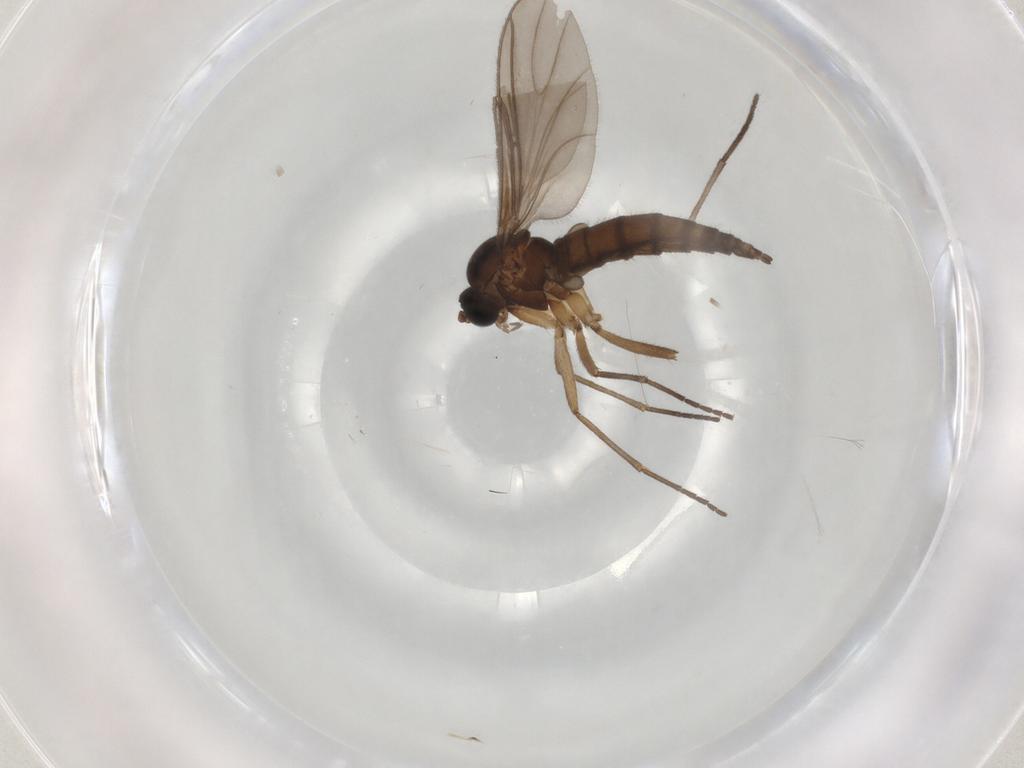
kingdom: Animalia
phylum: Arthropoda
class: Insecta
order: Diptera
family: Sciaridae
